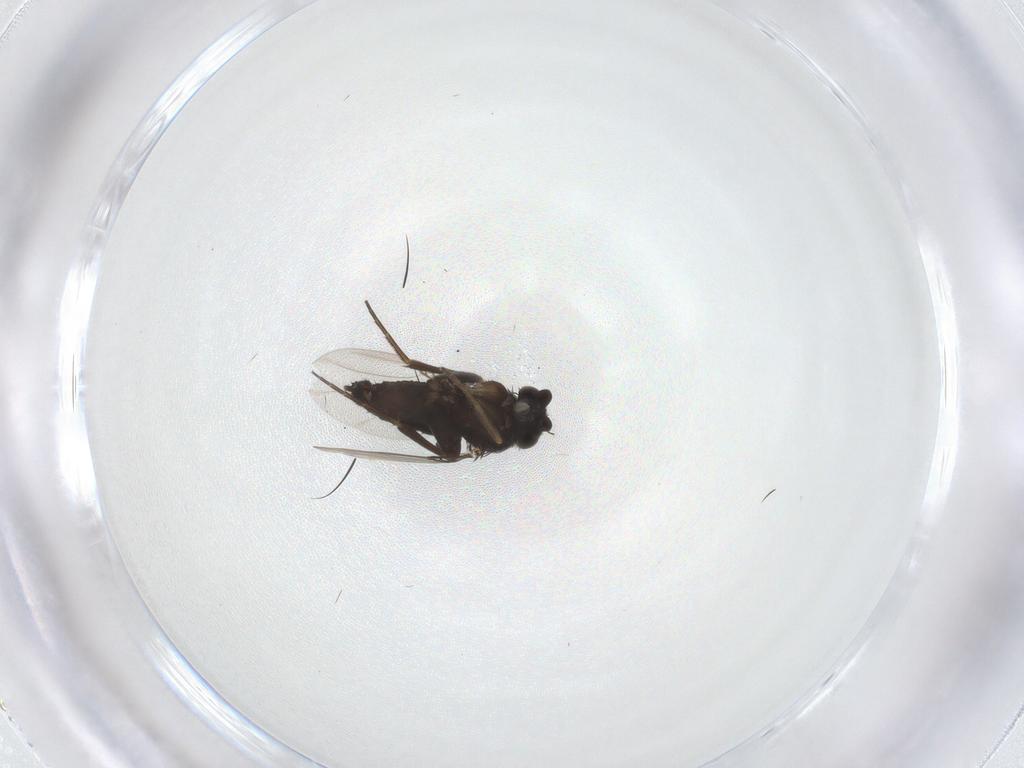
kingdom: Animalia
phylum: Arthropoda
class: Insecta
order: Diptera
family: Phoridae
